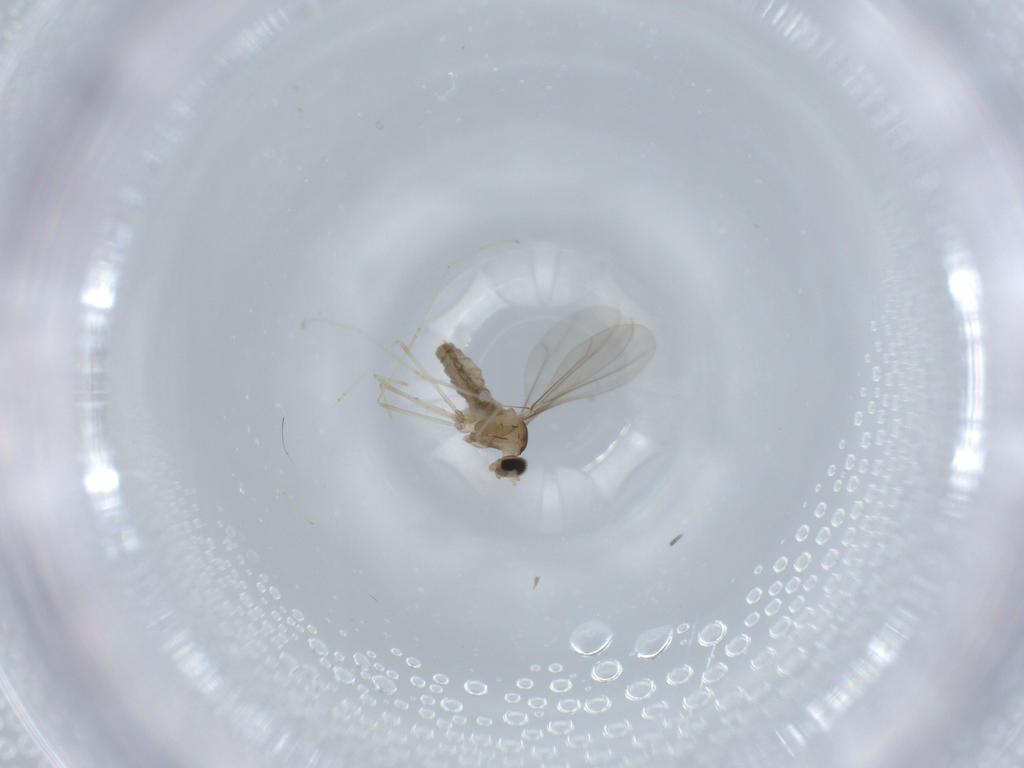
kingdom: Animalia
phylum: Arthropoda
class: Insecta
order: Diptera
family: Cecidomyiidae
